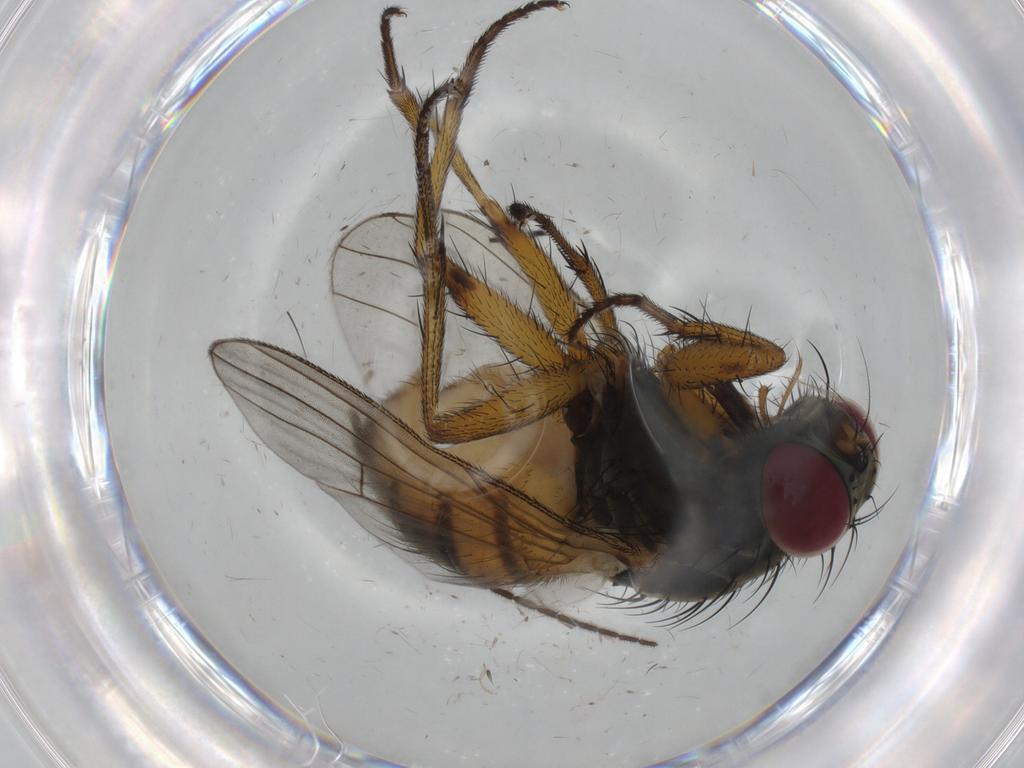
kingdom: Animalia
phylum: Arthropoda
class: Insecta
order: Diptera
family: Muscidae
